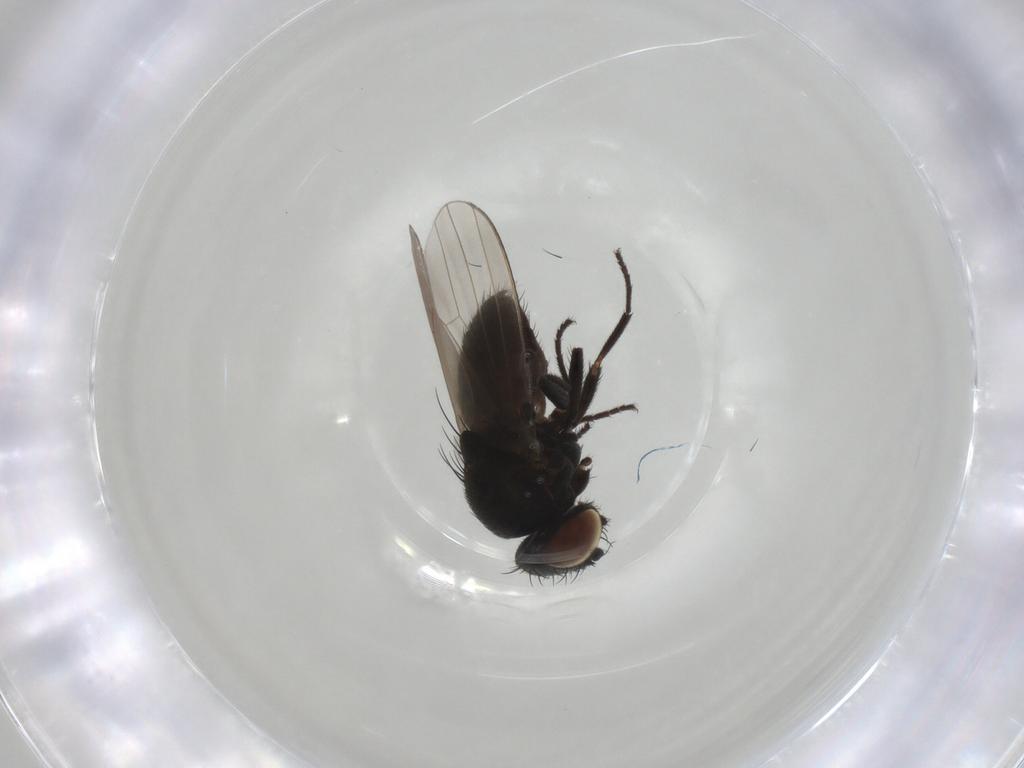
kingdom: Animalia
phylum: Arthropoda
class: Insecta
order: Diptera
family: Milichiidae
